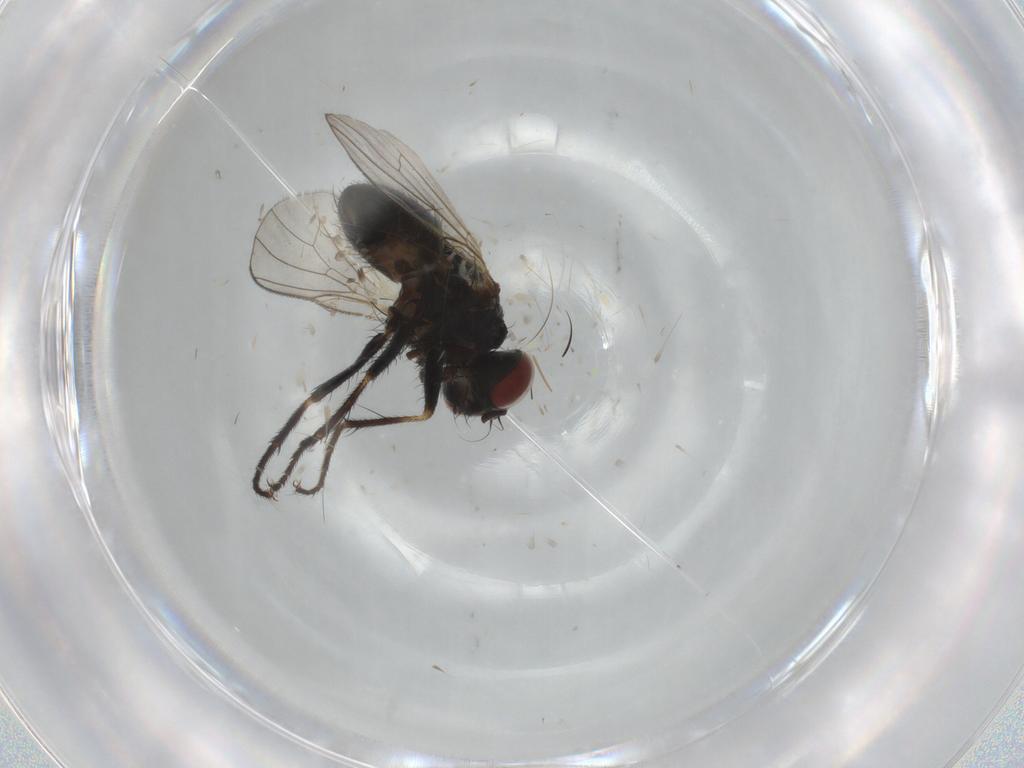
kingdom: Animalia
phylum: Arthropoda
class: Insecta
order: Diptera
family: Muscidae
